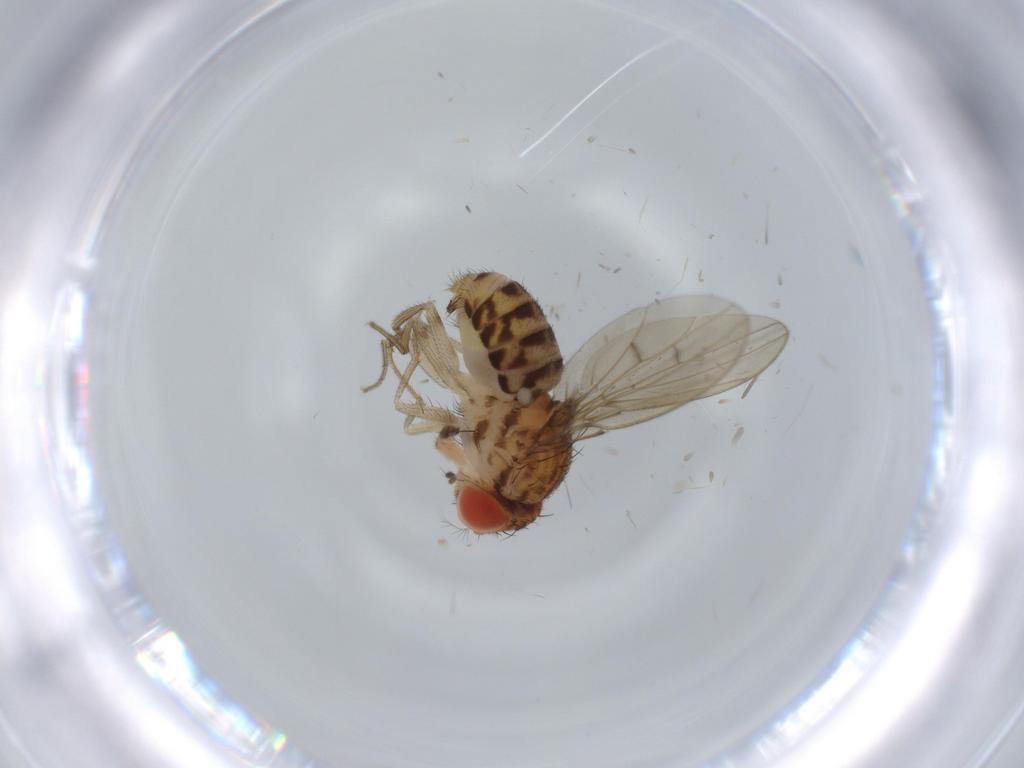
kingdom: Animalia
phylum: Arthropoda
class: Insecta
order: Diptera
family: Drosophilidae
